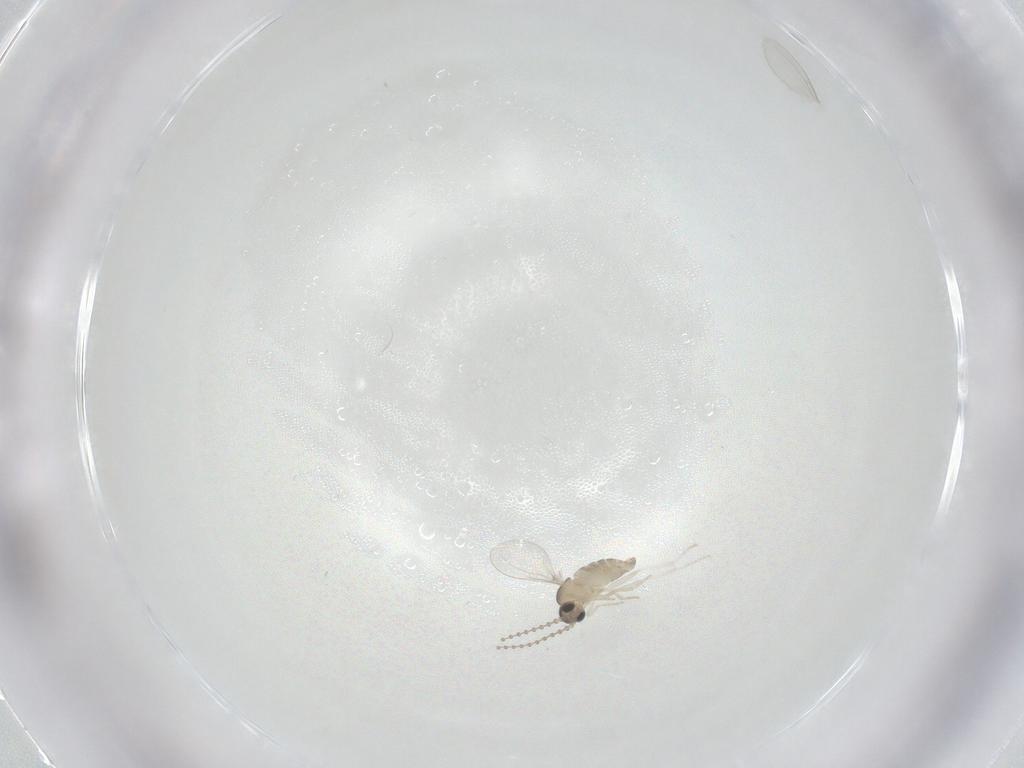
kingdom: Animalia
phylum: Arthropoda
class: Insecta
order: Diptera
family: Cecidomyiidae
